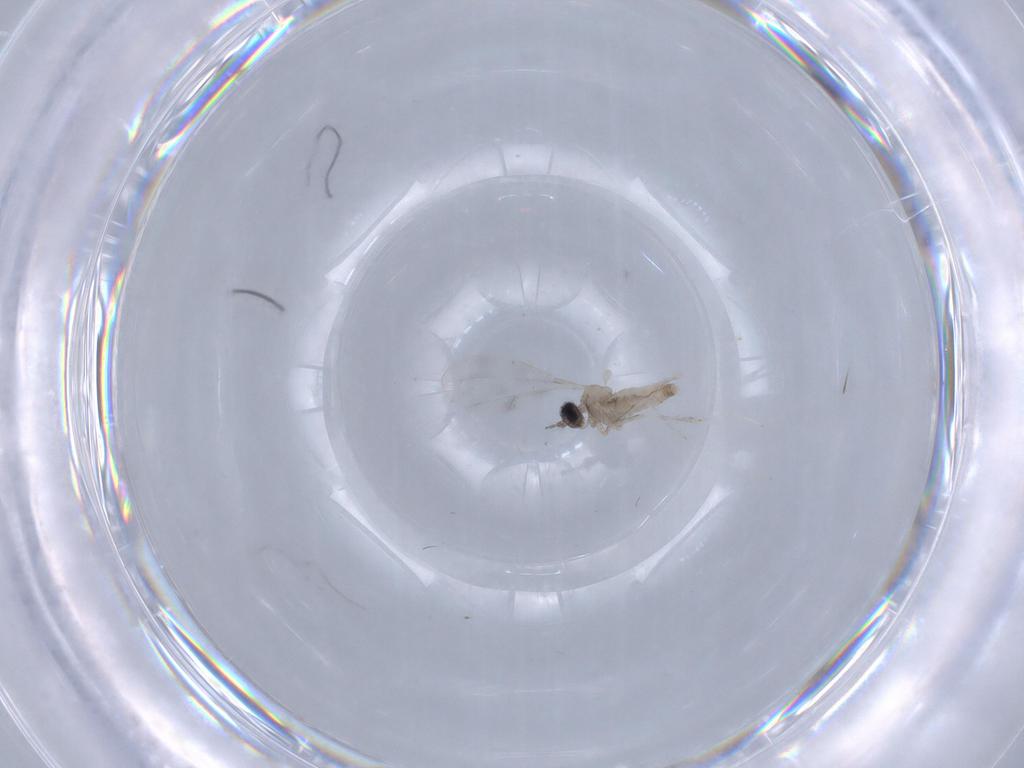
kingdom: Animalia
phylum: Arthropoda
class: Insecta
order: Diptera
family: Cecidomyiidae
